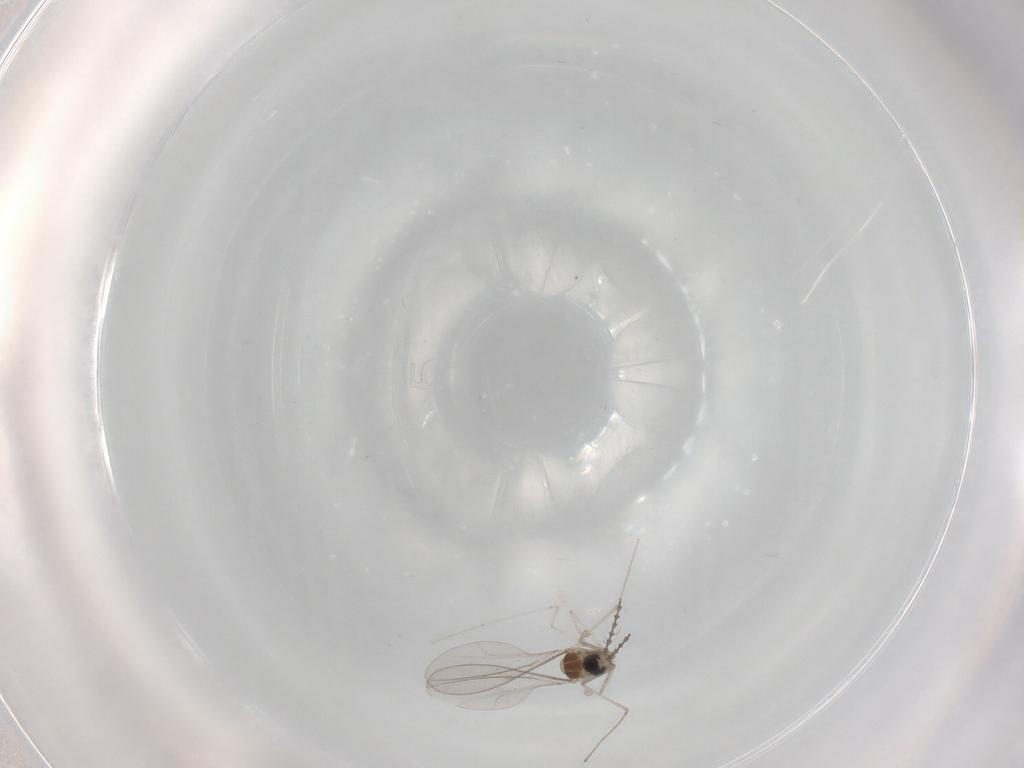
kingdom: Animalia
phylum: Arthropoda
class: Insecta
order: Diptera
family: Cecidomyiidae
